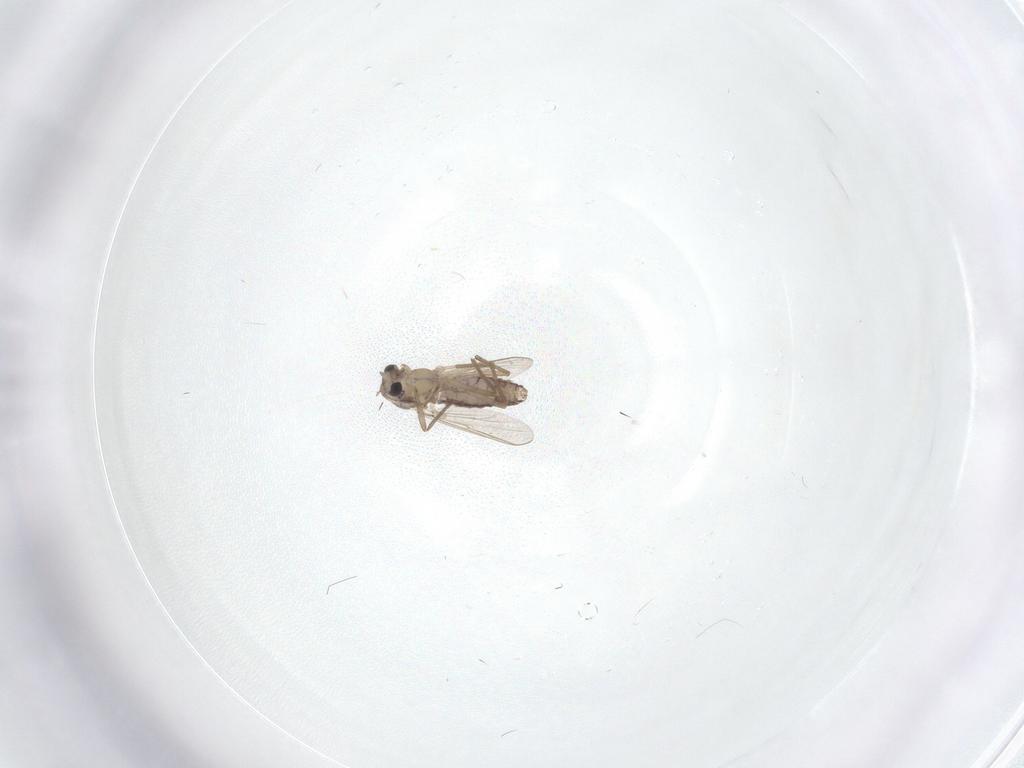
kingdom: Animalia
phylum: Arthropoda
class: Insecta
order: Diptera
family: Chironomidae
